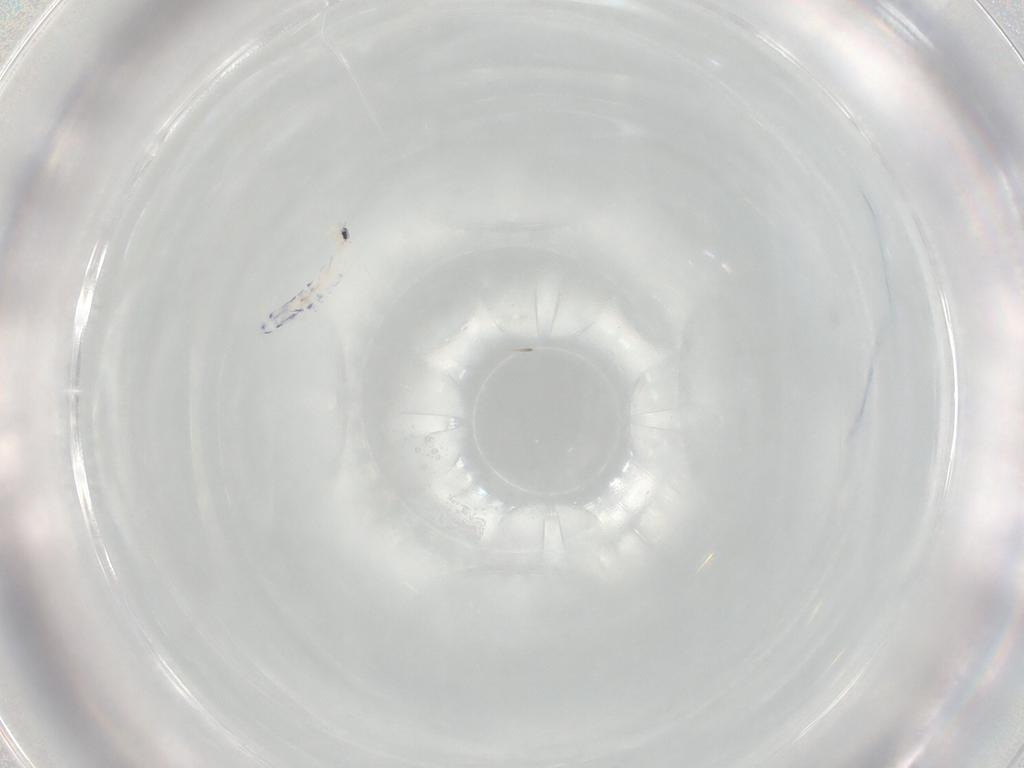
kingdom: Animalia
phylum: Arthropoda
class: Collembola
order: Entomobryomorpha
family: Entomobryidae
